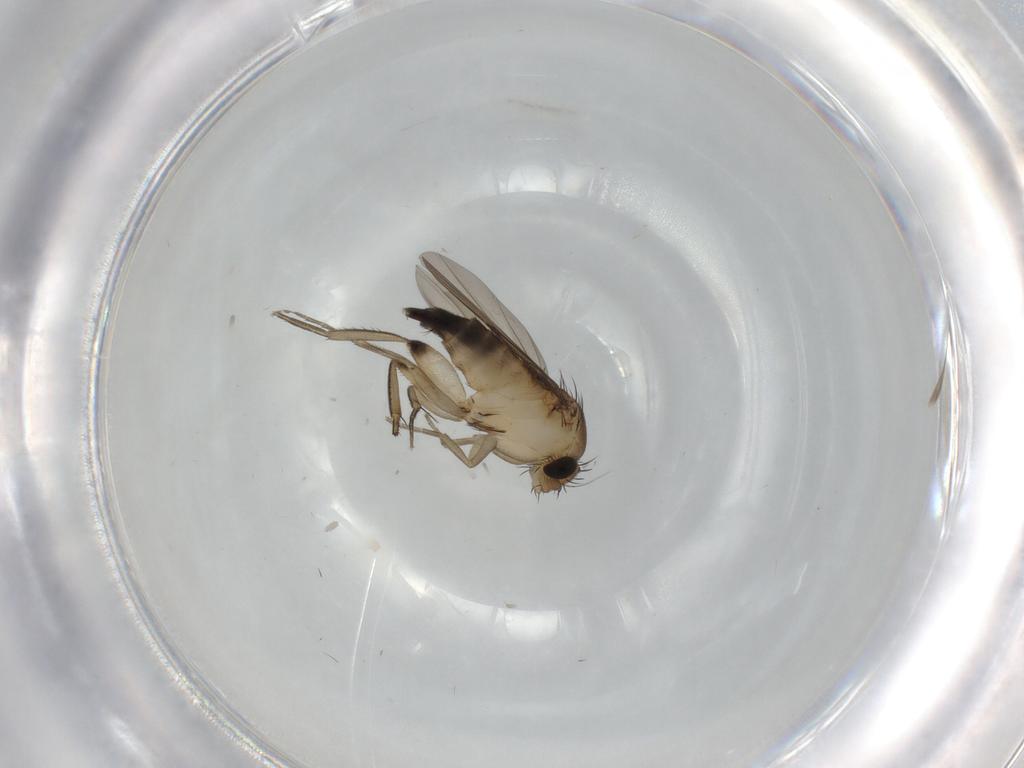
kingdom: Animalia
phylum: Arthropoda
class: Insecta
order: Diptera
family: Phoridae
